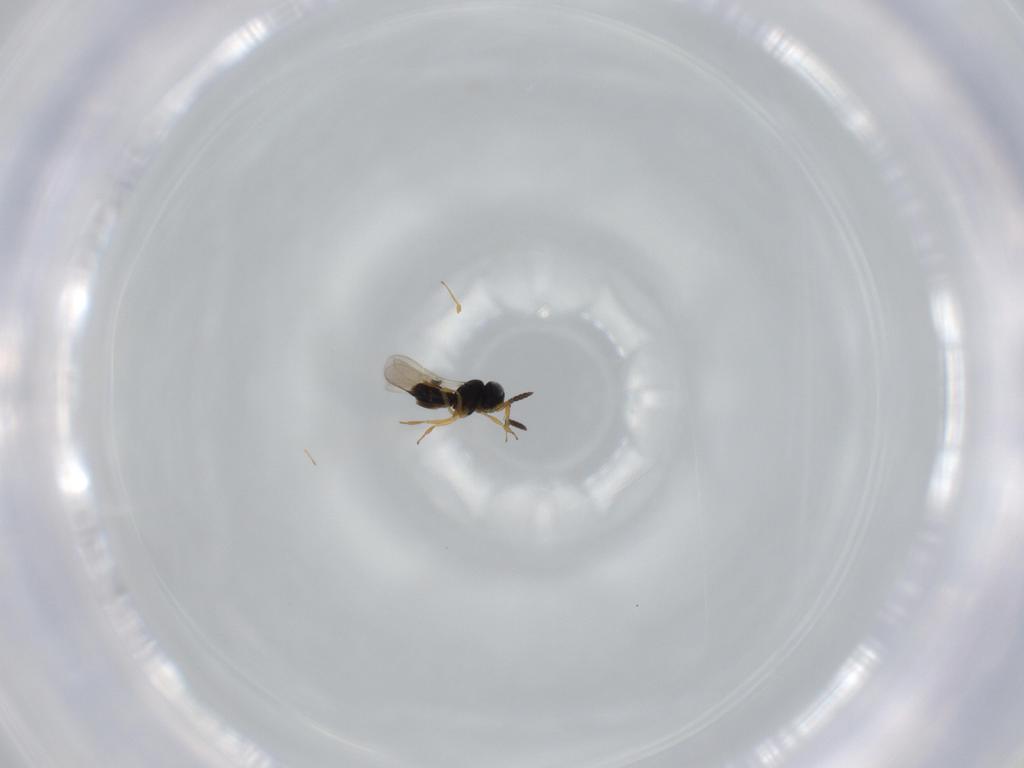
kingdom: Animalia
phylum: Arthropoda
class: Insecta
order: Hymenoptera
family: Scelionidae
